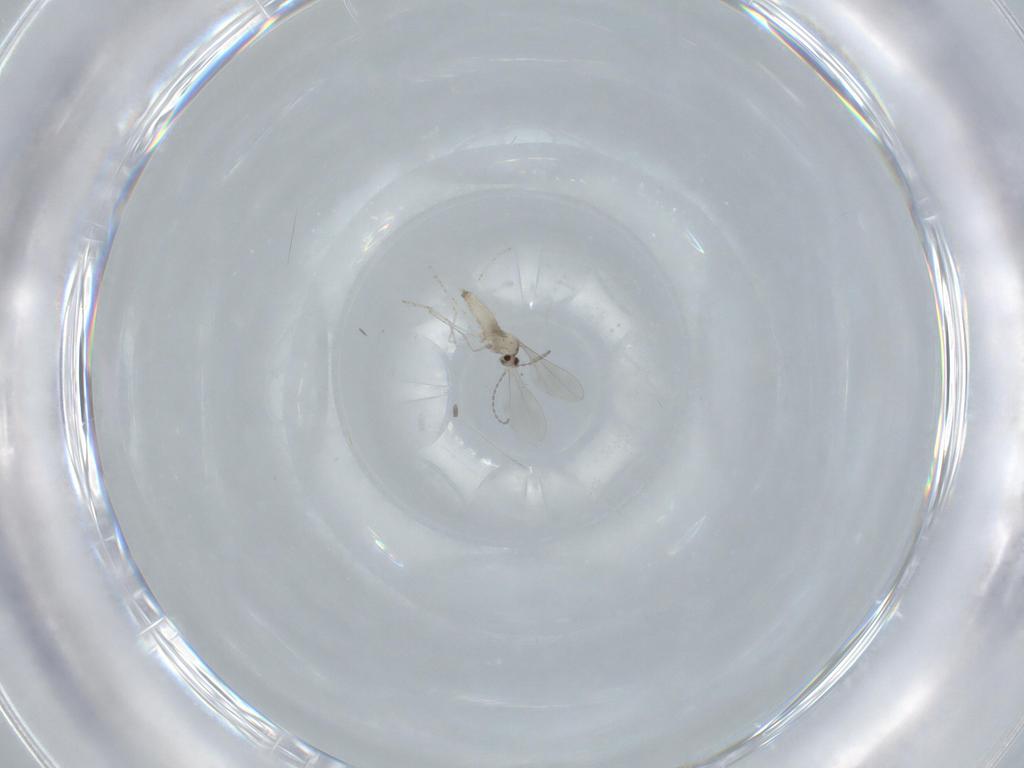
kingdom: Animalia
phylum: Arthropoda
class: Insecta
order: Diptera
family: Cecidomyiidae
